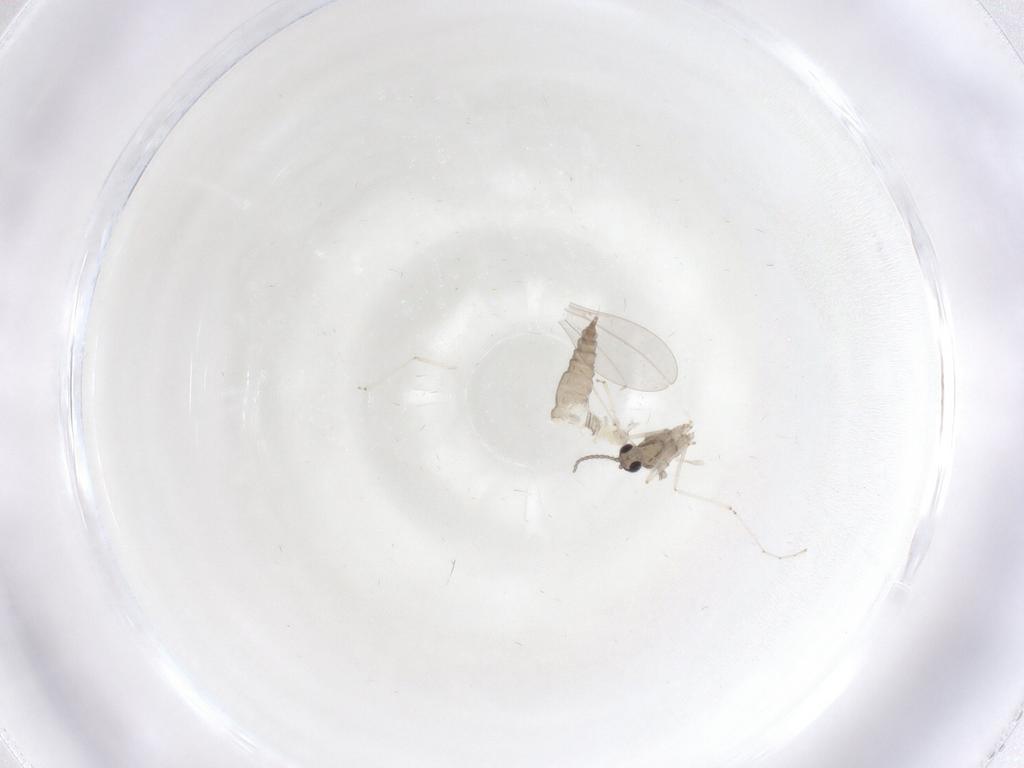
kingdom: Animalia
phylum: Arthropoda
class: Insecta
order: Diptera
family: Cecidomyiidae
